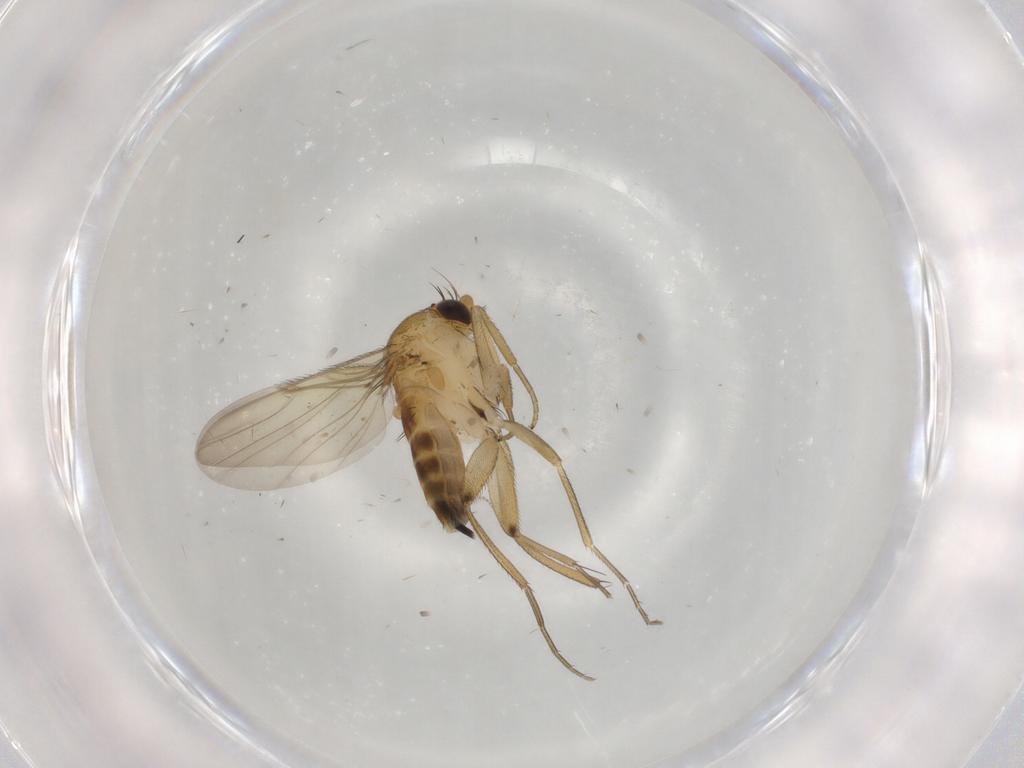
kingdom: Animalia
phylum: Arthropoda
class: Insecta
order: Diptera
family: Phoridae
